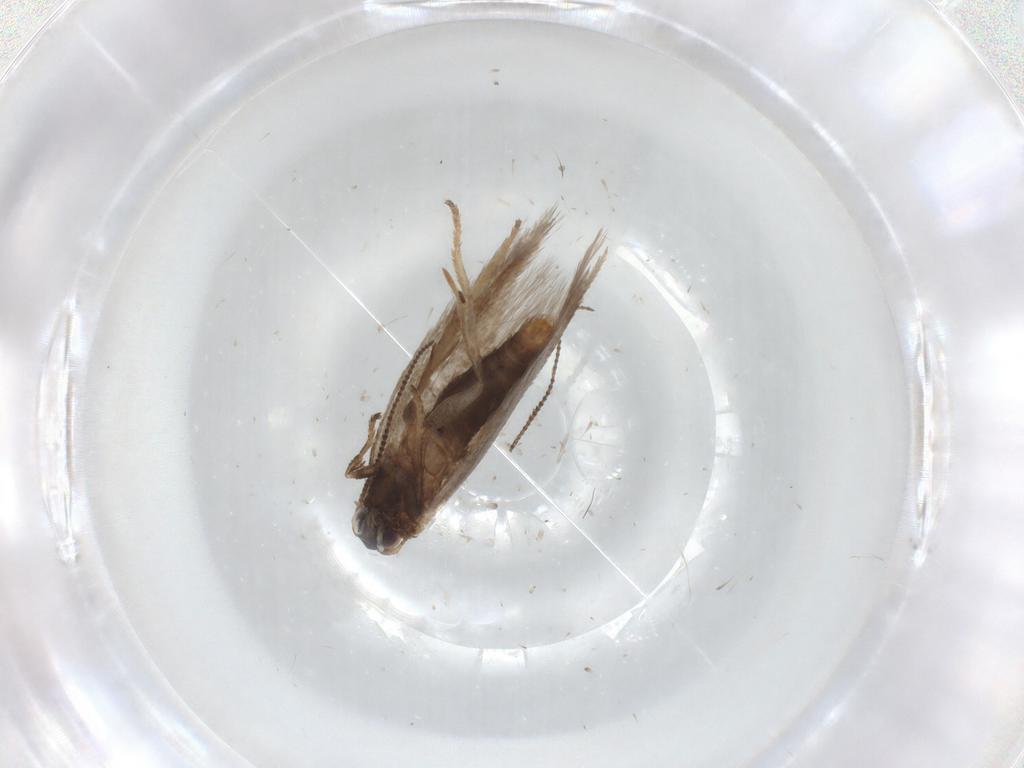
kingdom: Animalia
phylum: Arthropoda
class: Insecta
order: Lepidoptera
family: Nepticulidae
